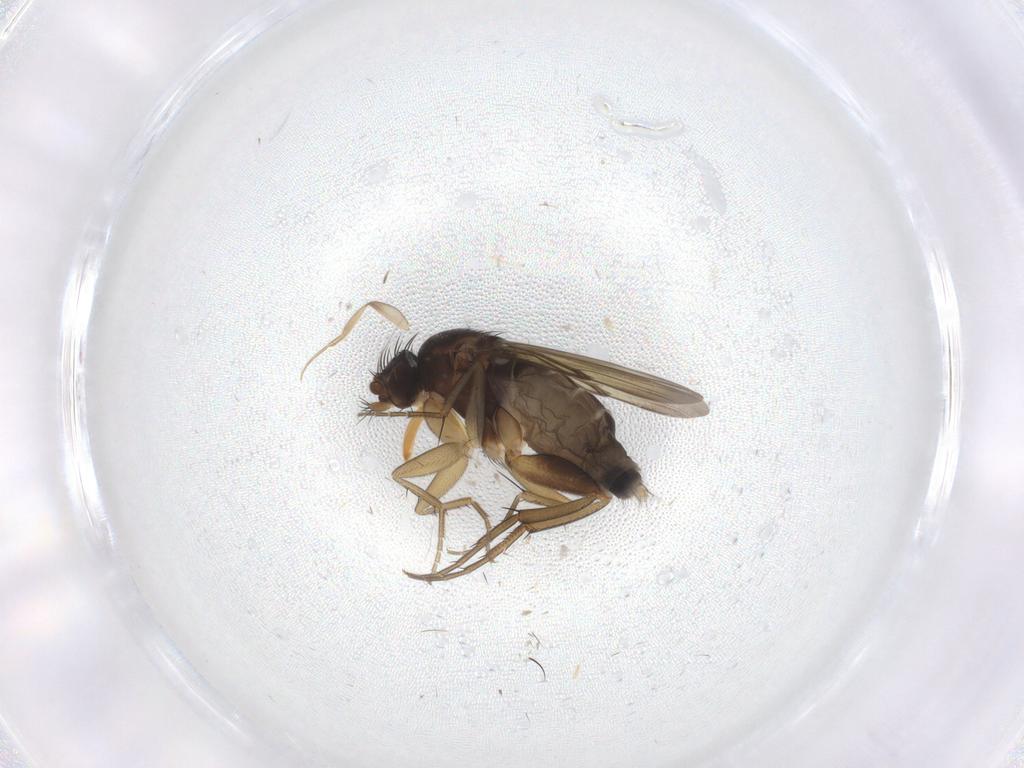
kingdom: Animalia
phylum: Arthropoda
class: Insecta
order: Diptera
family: Phoridae
